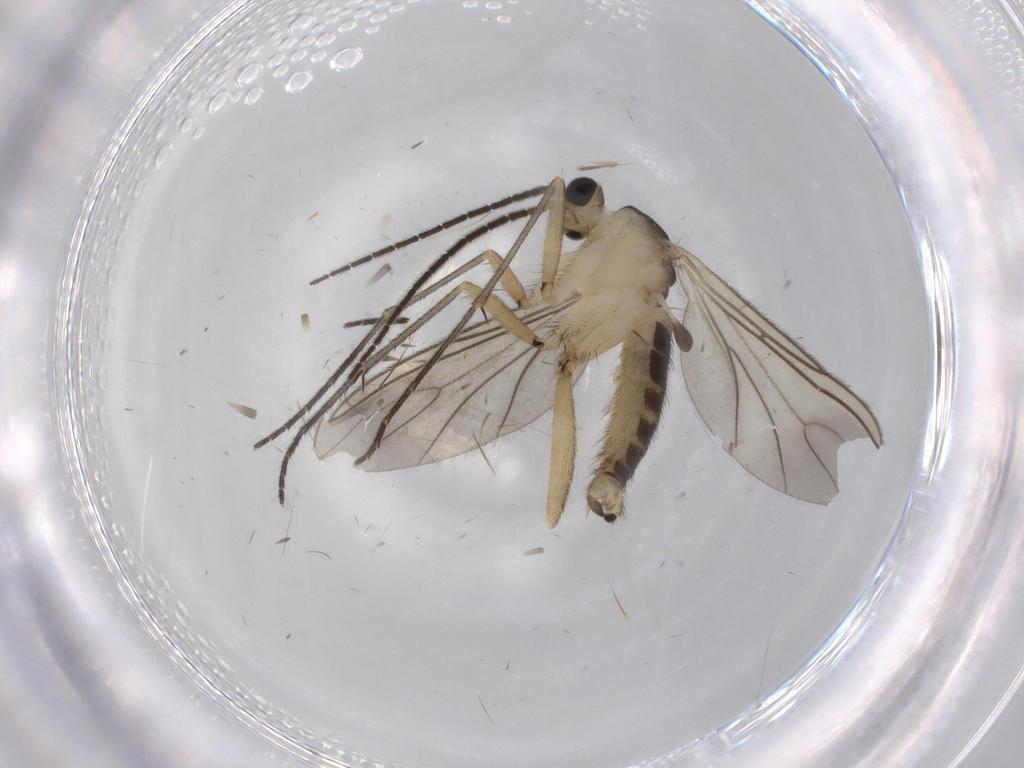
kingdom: Animalia
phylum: Arthropoda
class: Insecta
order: Diptera
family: Sciaridae
